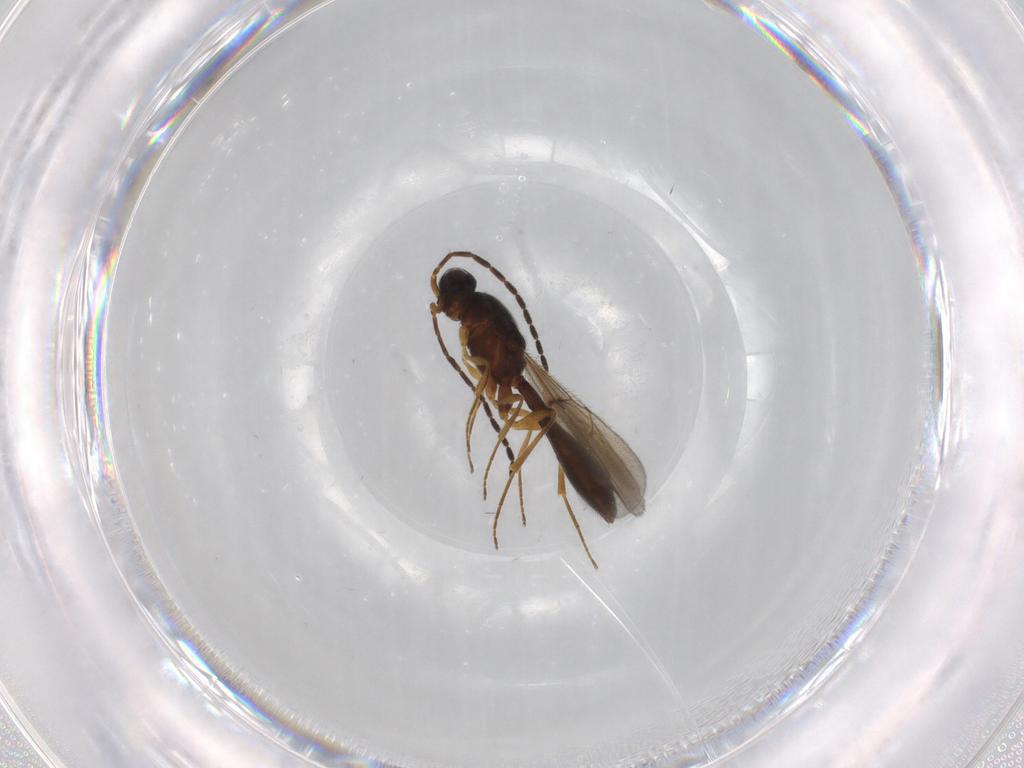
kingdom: Animalia
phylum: Arthropoda
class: Insecta
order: Hymenoptera
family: Scelionidae
